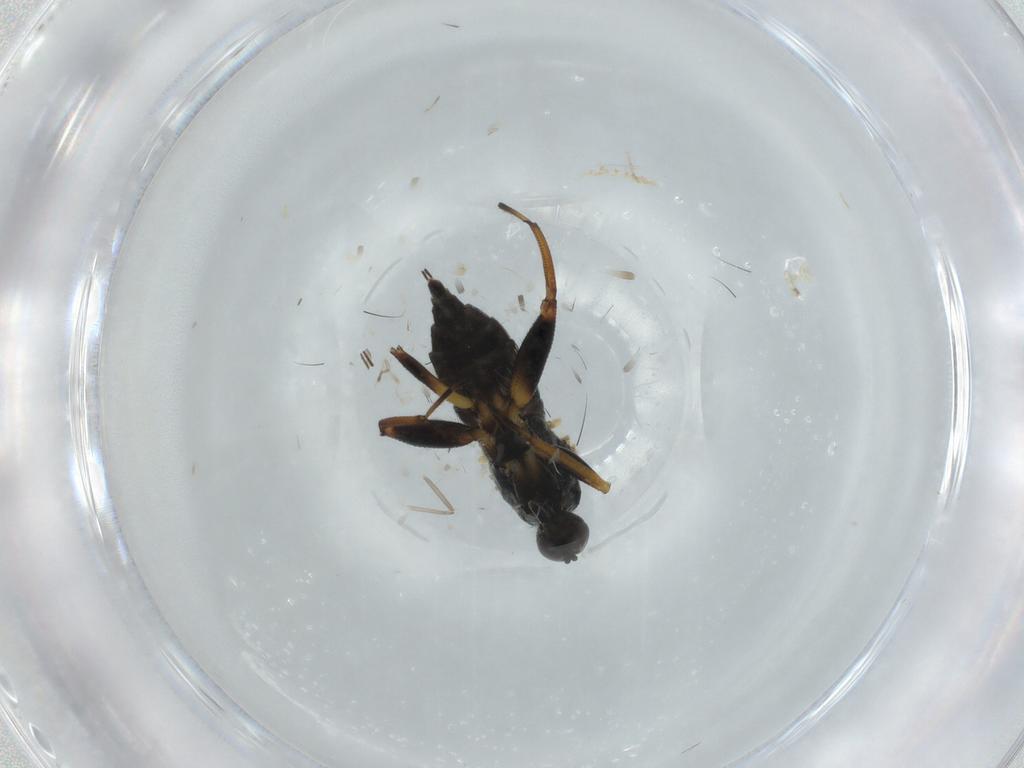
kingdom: Animalia
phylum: Arthropoda
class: Insecta
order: Diptera
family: Hybotidae
